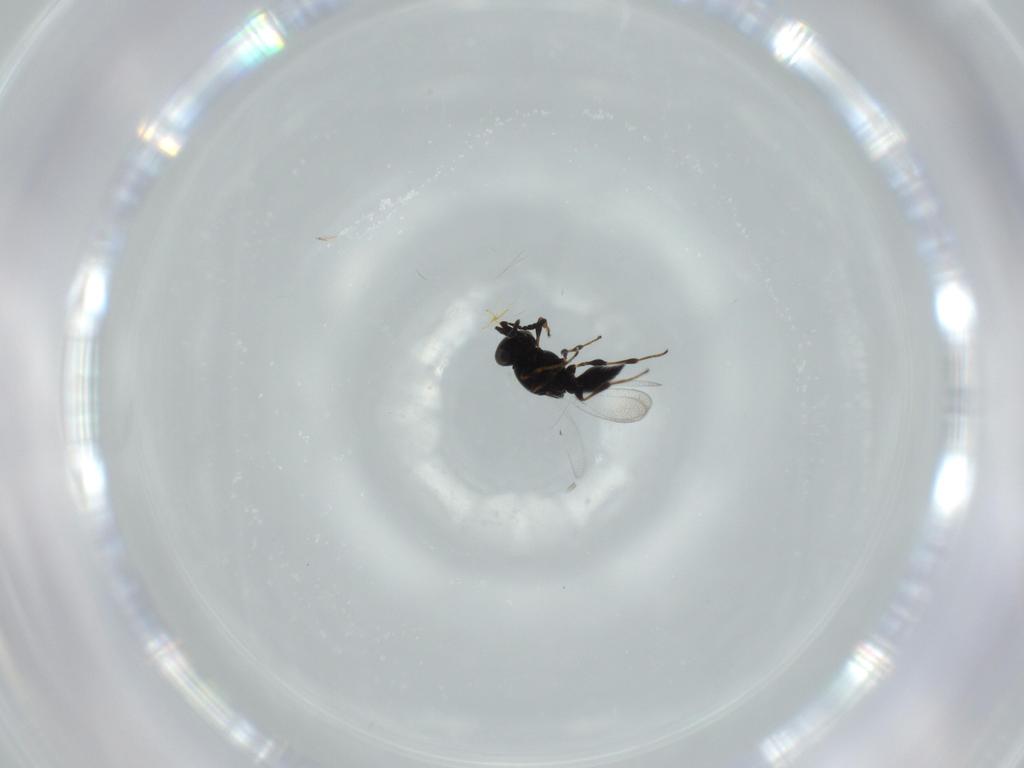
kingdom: Animalia
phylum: Arthropoda
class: Insecta
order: Hymenoptera
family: Platygastridae
